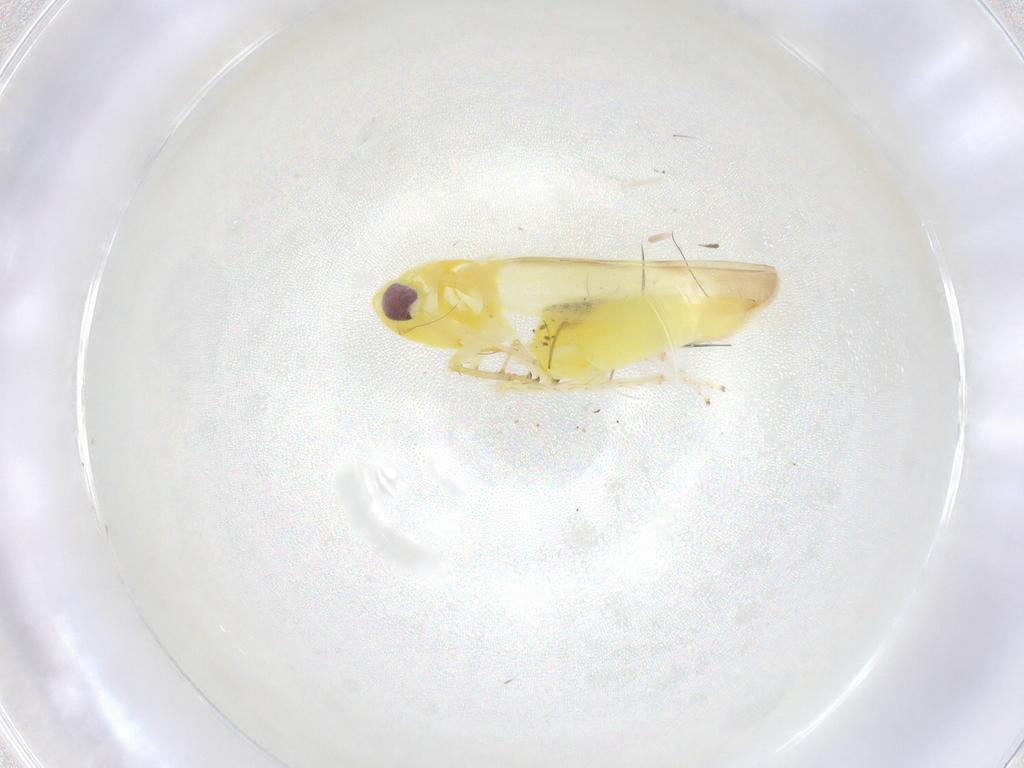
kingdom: Animalia
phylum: Arthropoda
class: Insecta
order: Hemiptera
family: Cicadellidae
